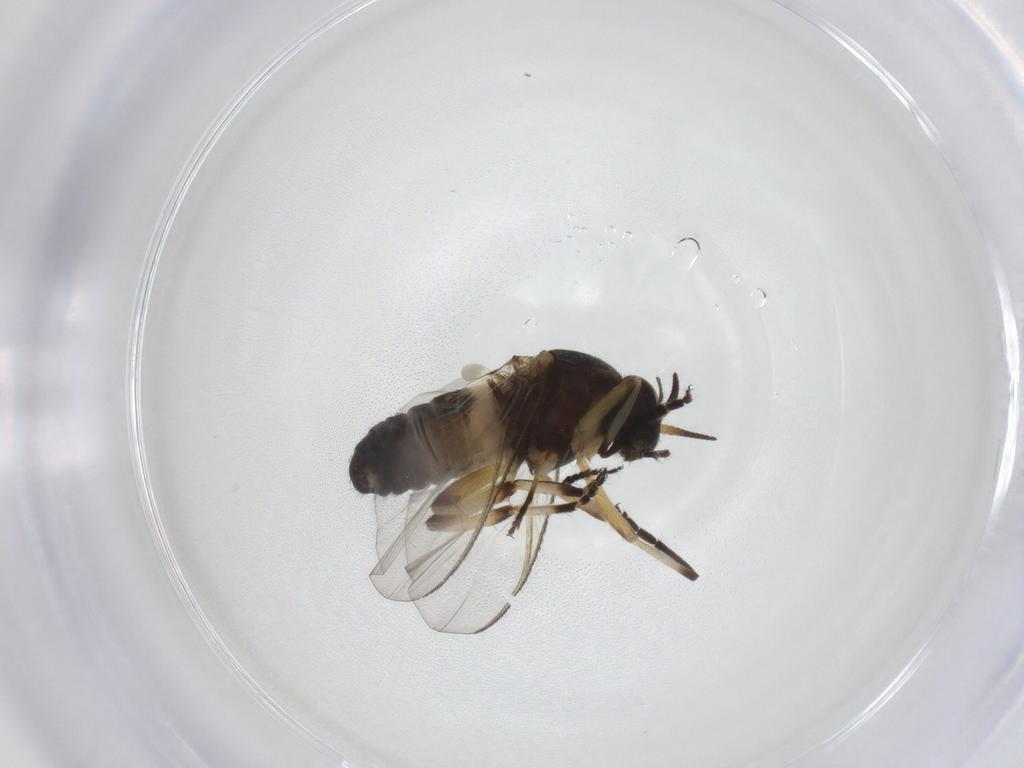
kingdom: Animalia
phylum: Arthropoda
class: Insecta
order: Diptera
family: Simuliidae
